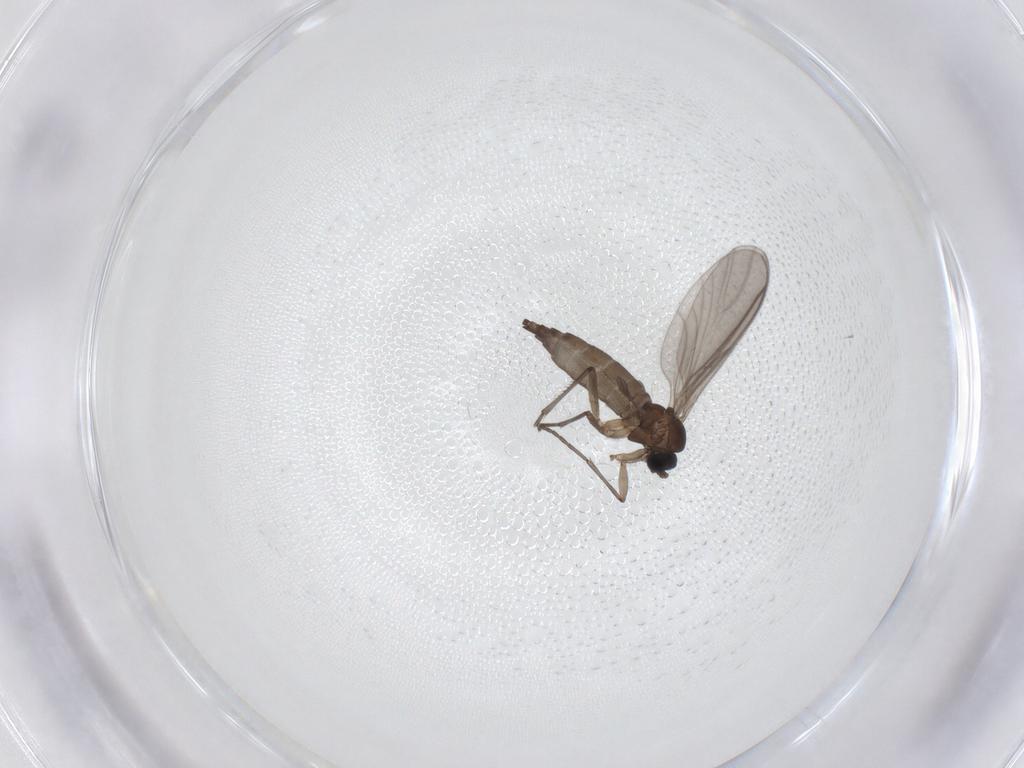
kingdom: Animalia
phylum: Arthropoda
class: Insecta
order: Diptera
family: Sciaridae
